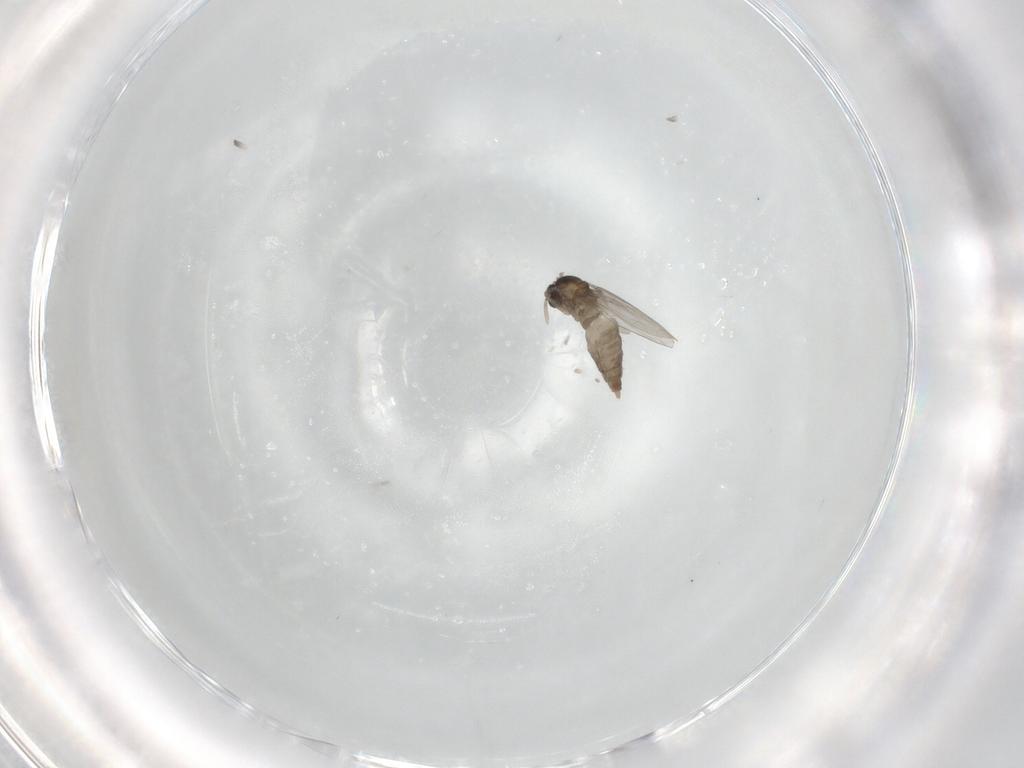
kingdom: Animalia
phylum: Arthropoda
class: Insecta
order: Diptera
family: Cecidomyiidae
